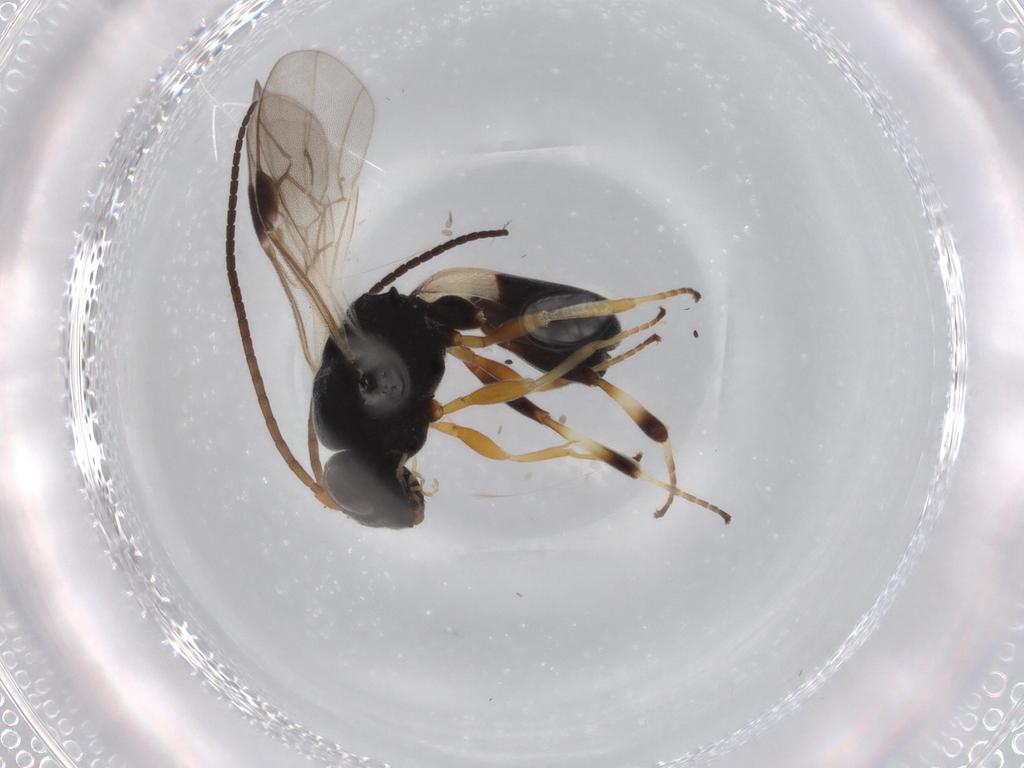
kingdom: Animalia
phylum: Arthropoda
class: Insecta
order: Hymenoptera
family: Braconidae
